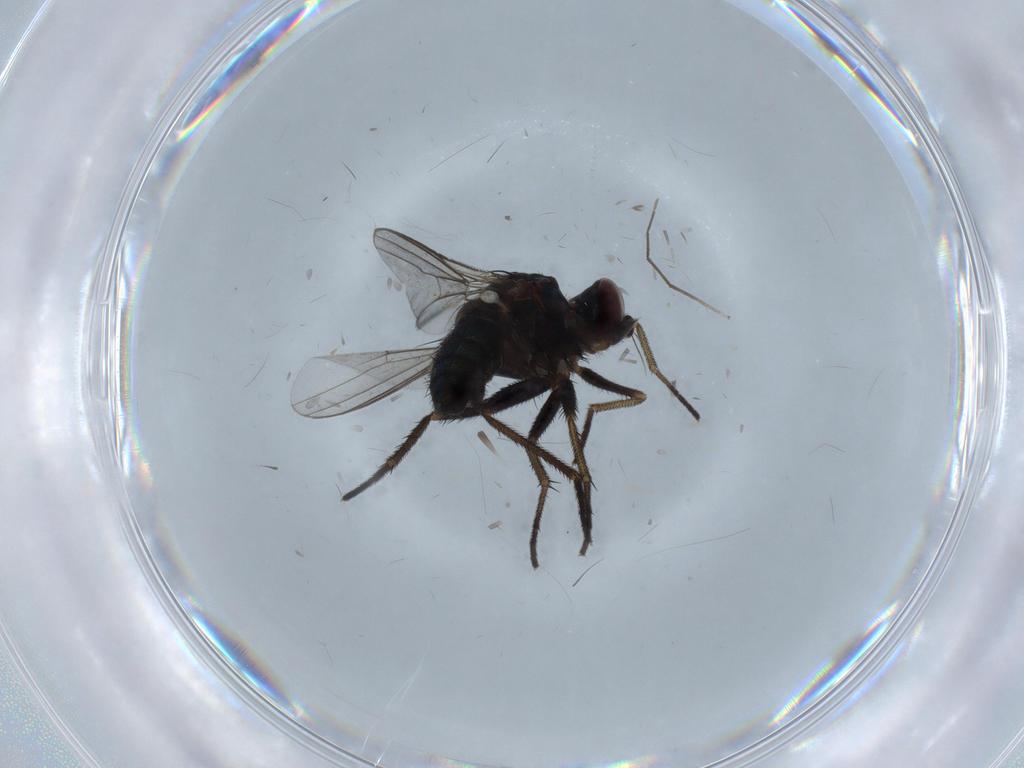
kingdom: Animalia
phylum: Arthropoda
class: Insecta
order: Diptera
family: Dolichopodidae
